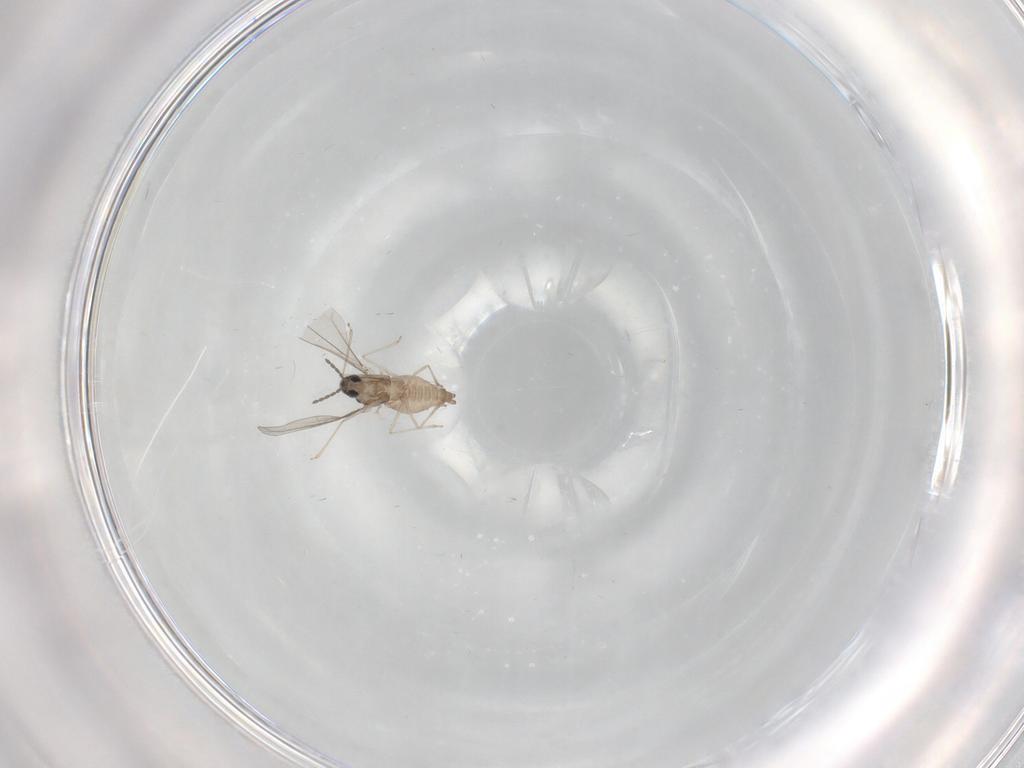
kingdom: Animalia
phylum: Arthropoda
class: Insecta
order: Diptera
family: Cecidomyiidae
